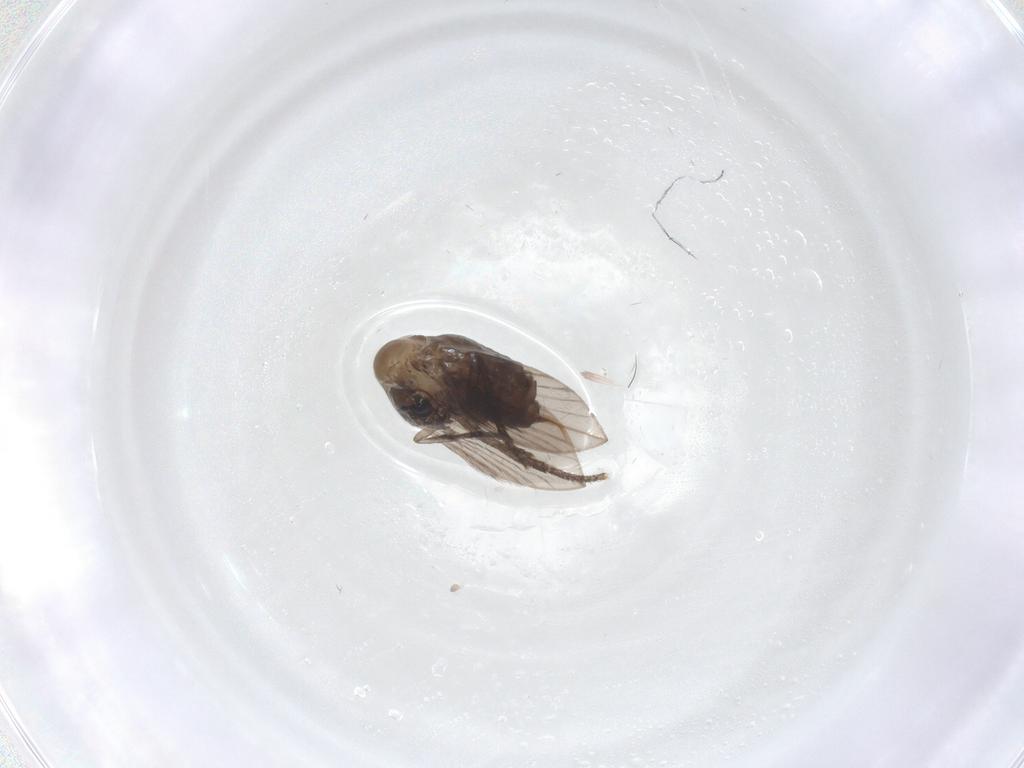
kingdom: Animalia
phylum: Arthropoda
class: Insecta
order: Diptera
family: Psychodidae
